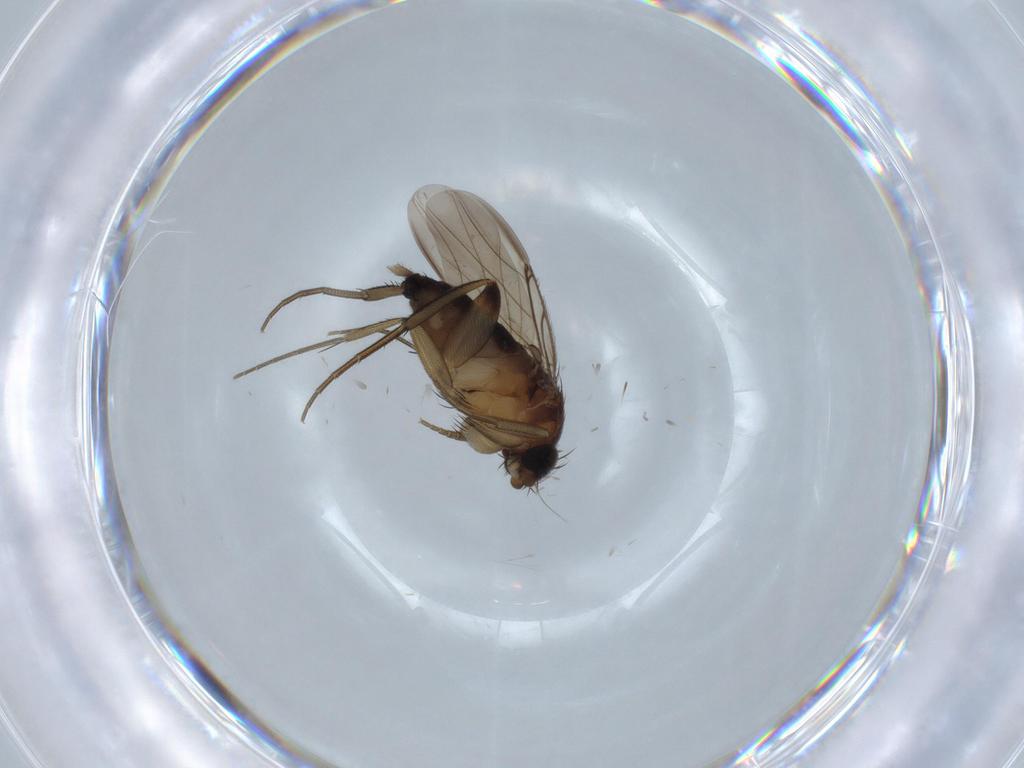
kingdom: Animalia
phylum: Arthropoda
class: Insecta
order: Diptera
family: Phoridae
